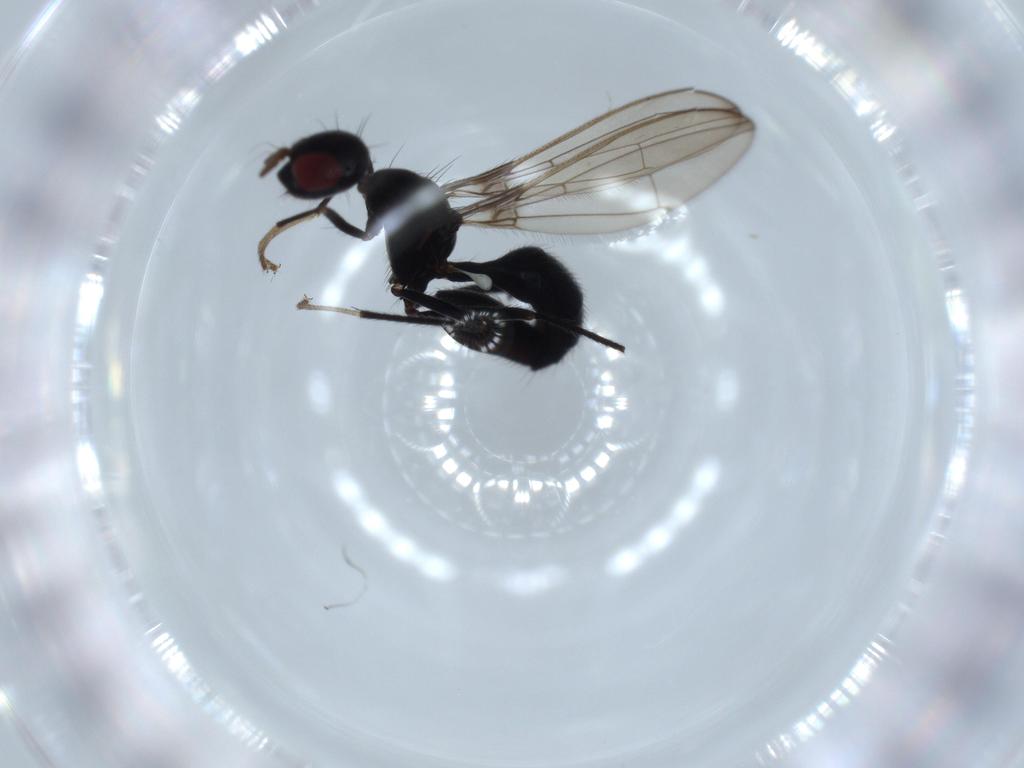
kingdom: Animalia
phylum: Arthropoda
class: Insecta
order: Diptera
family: Richardiidae
